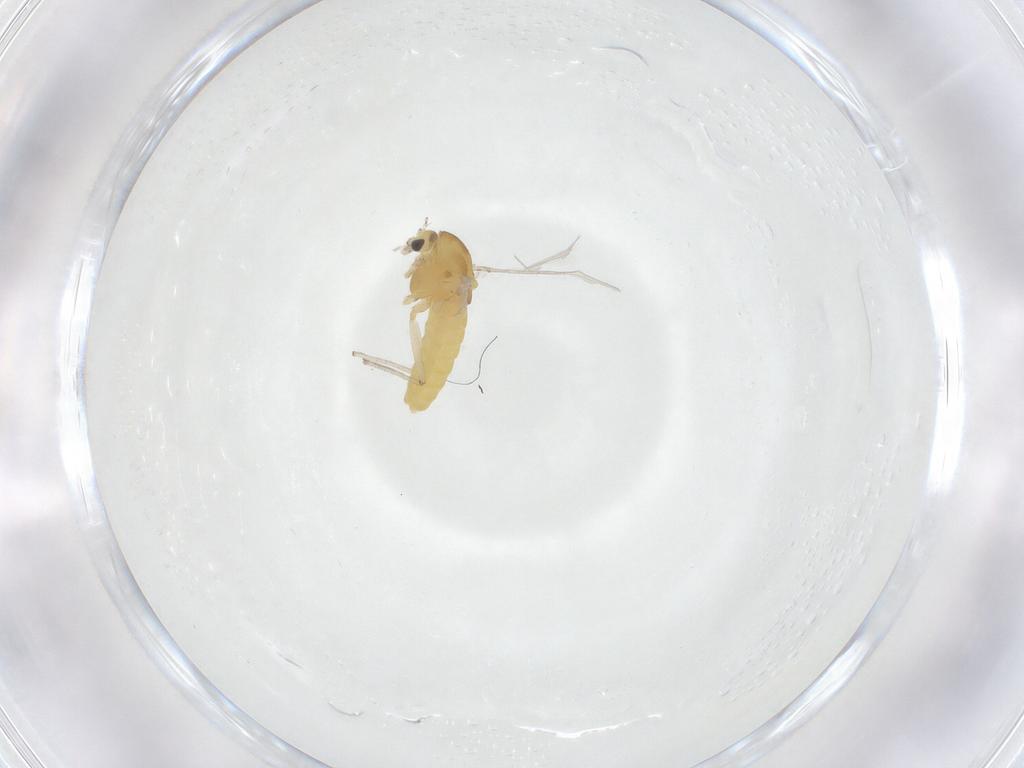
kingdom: Animalia
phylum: Arthropoda
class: Insecta
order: Diptera
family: Chironomidae
